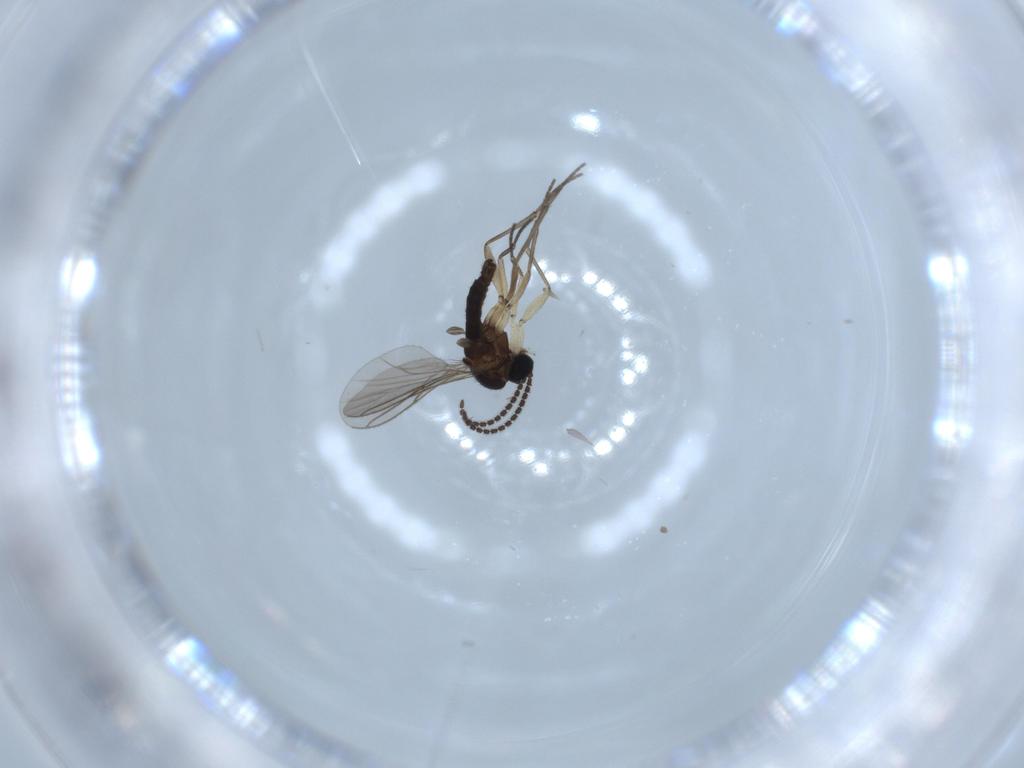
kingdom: Animalia
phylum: Arthropoda
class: Insecta
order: Diptera
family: Sciaridae
